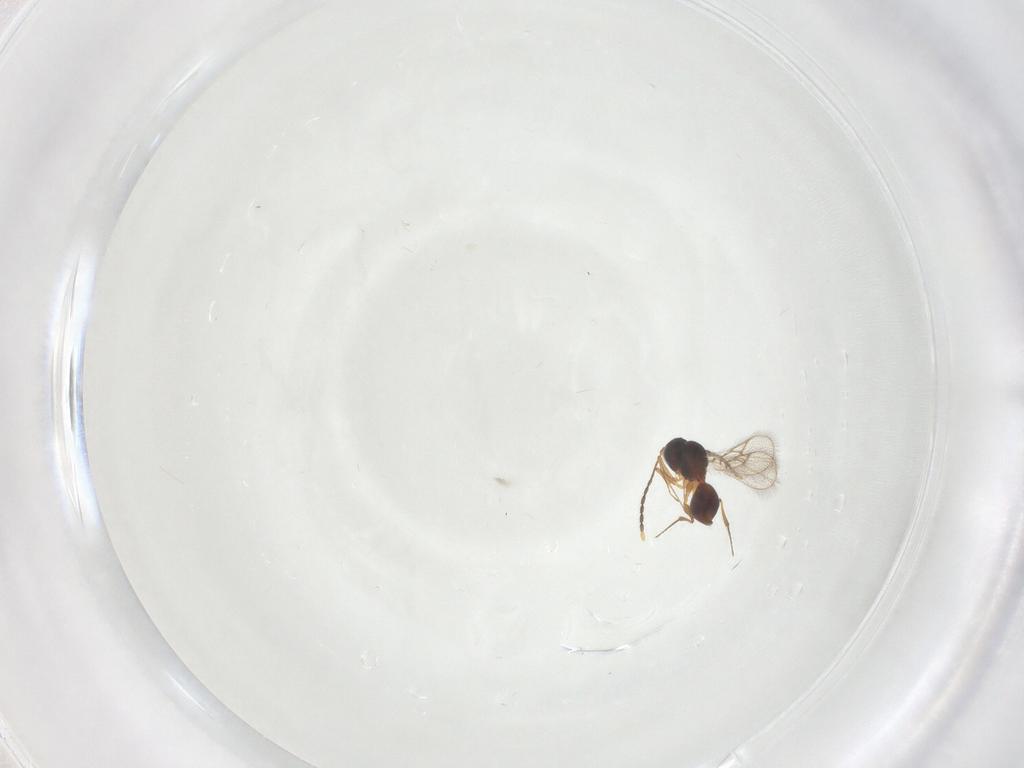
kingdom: Animalia
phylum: Arthropoda
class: Insecta
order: Hymenoptera
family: Figitidae
